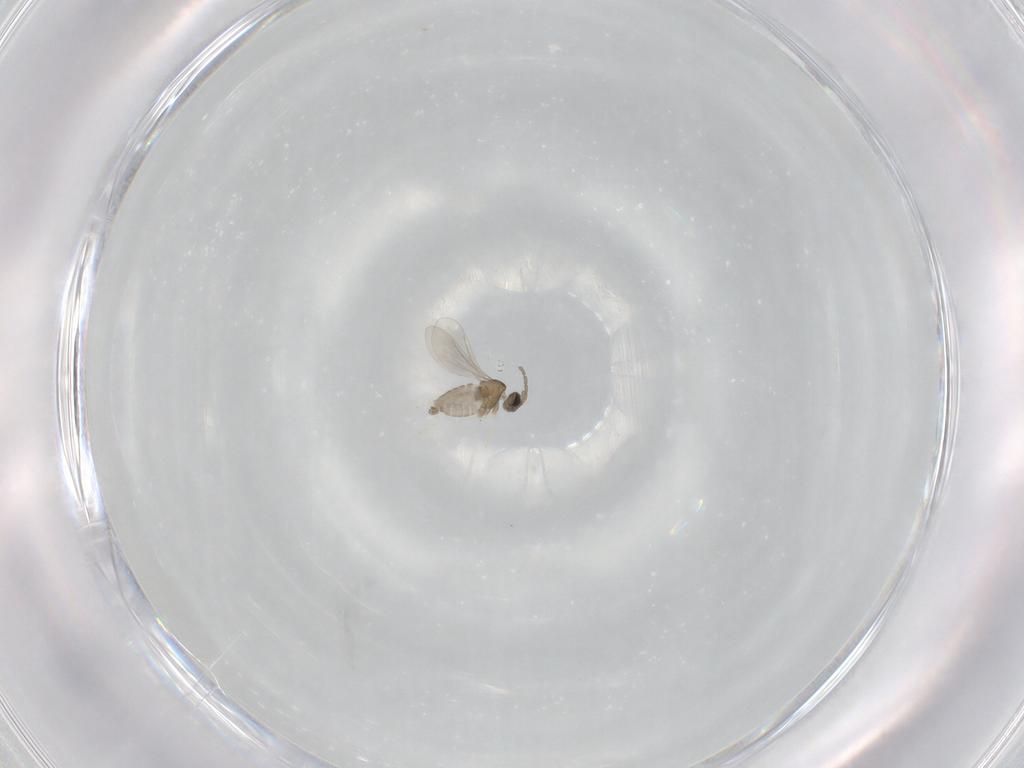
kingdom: Animalia
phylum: Arthropoda
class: Insecta
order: Diptera
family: Cecidomyiidae
